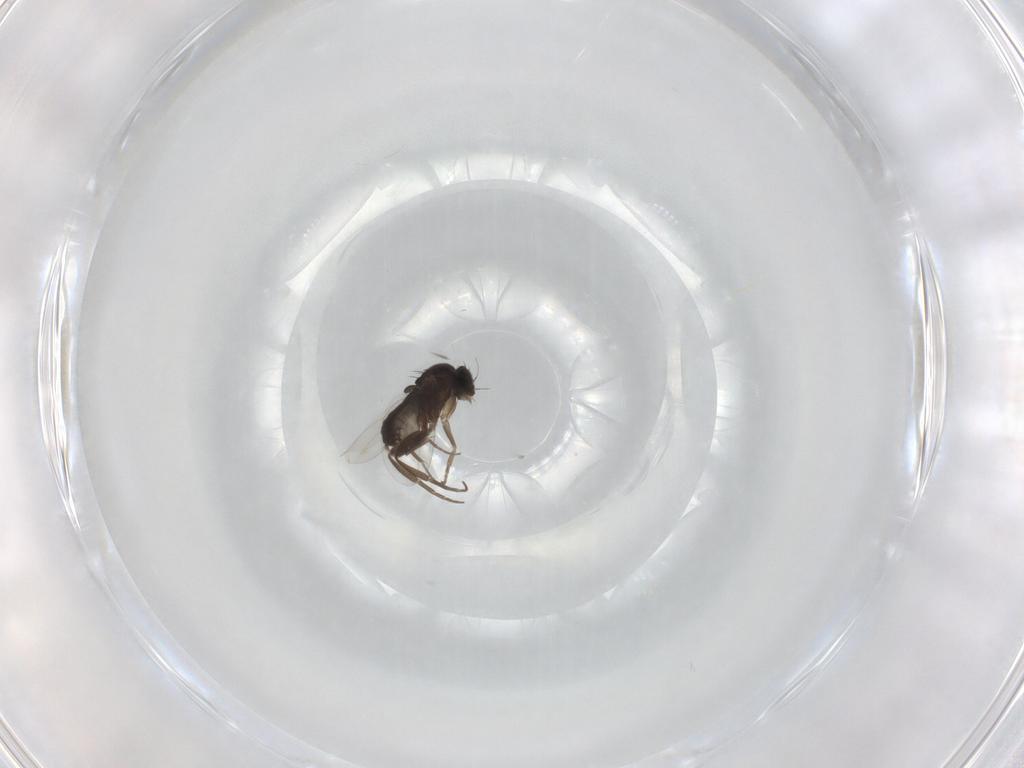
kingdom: Animalia
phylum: Arthropoda
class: Insecta
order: Diptera
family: Phoridae
